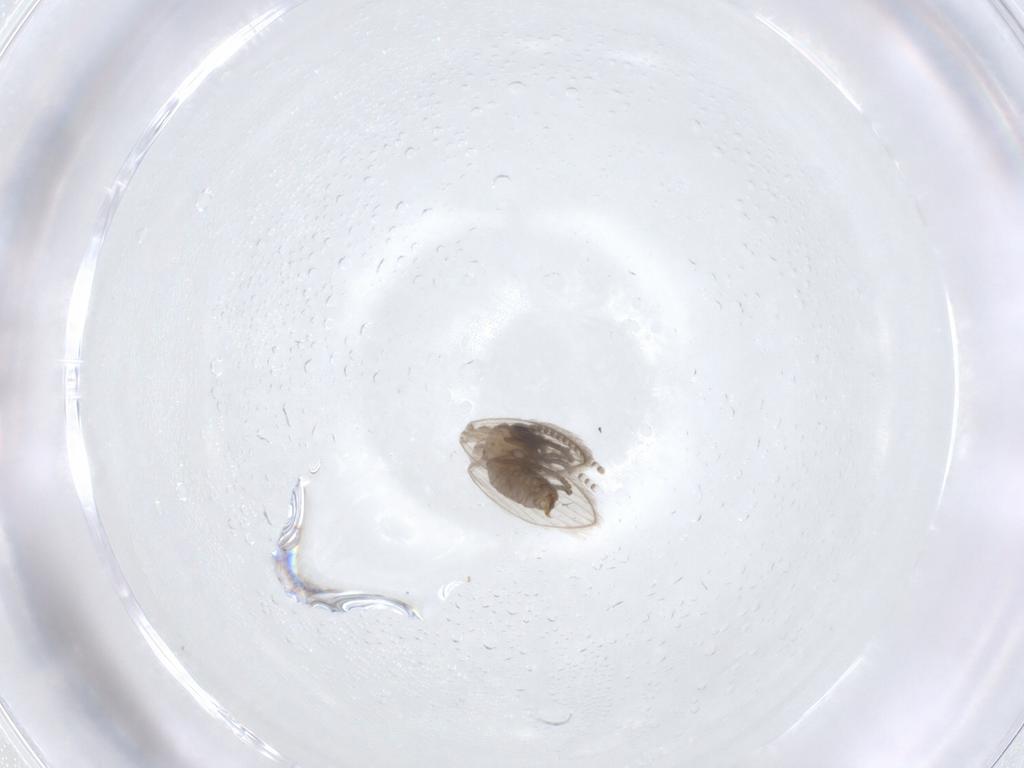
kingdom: Animalia
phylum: Arthropoda
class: Insecta
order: Diptera
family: Psychodidae
